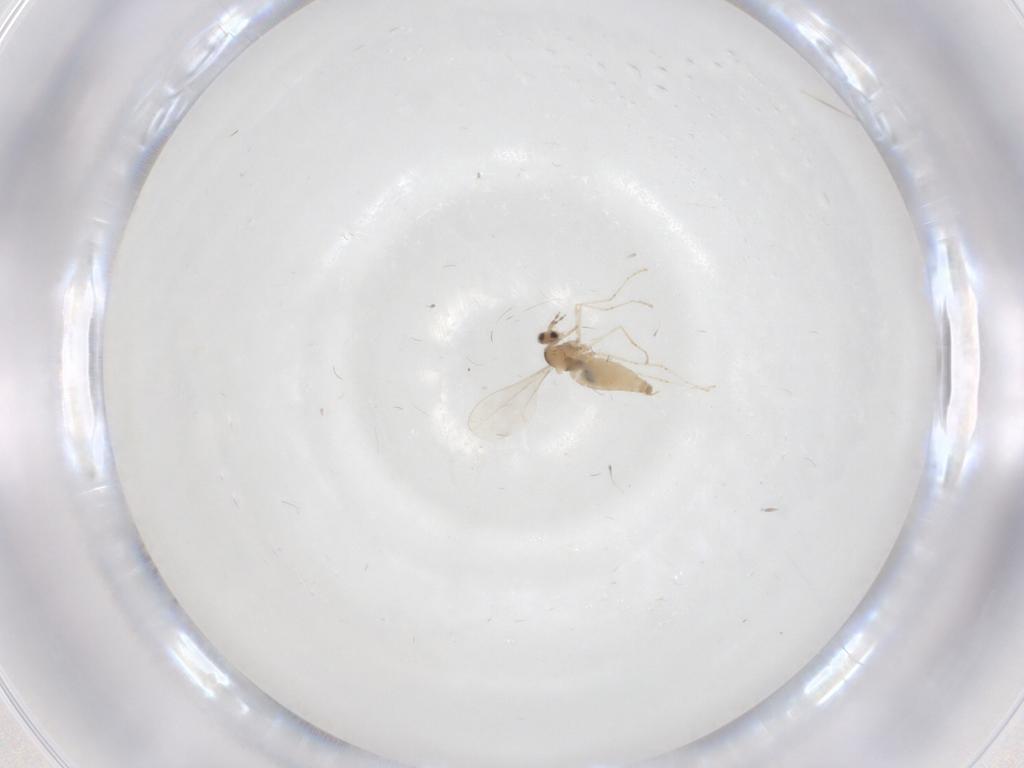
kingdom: Animalia
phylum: Arthropoda
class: Insecta
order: Diptera
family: Cecidomyiidae
